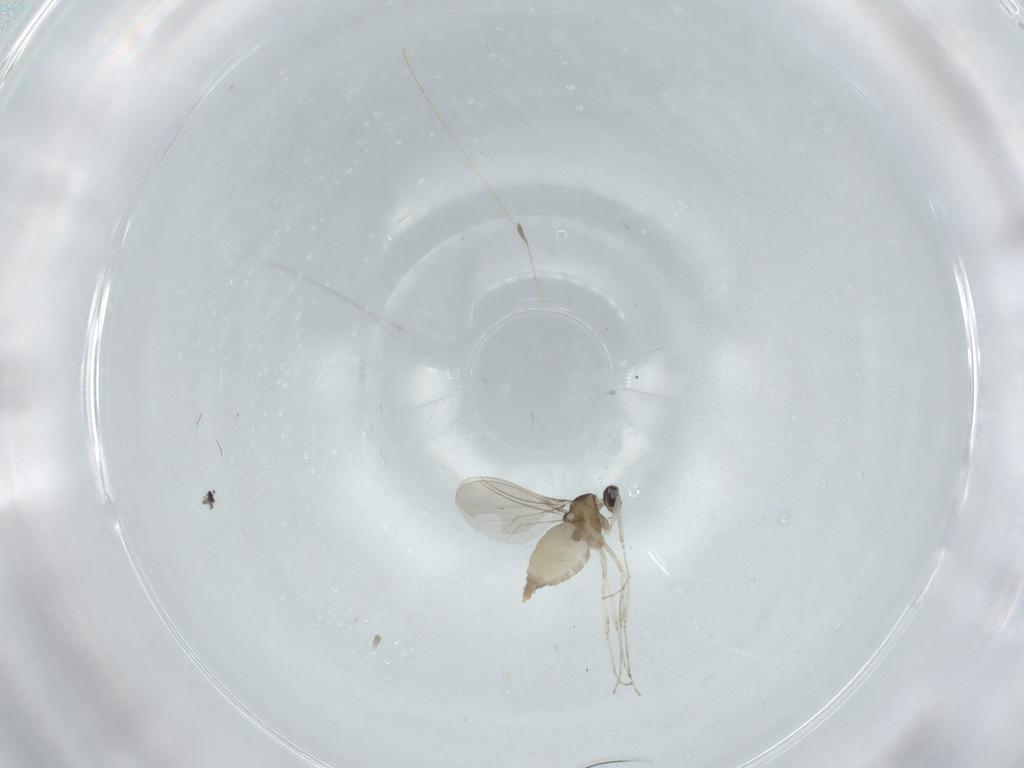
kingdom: Animalia
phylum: Arthropoda
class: Insecta
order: Diptera
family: Cecidomyiidae
